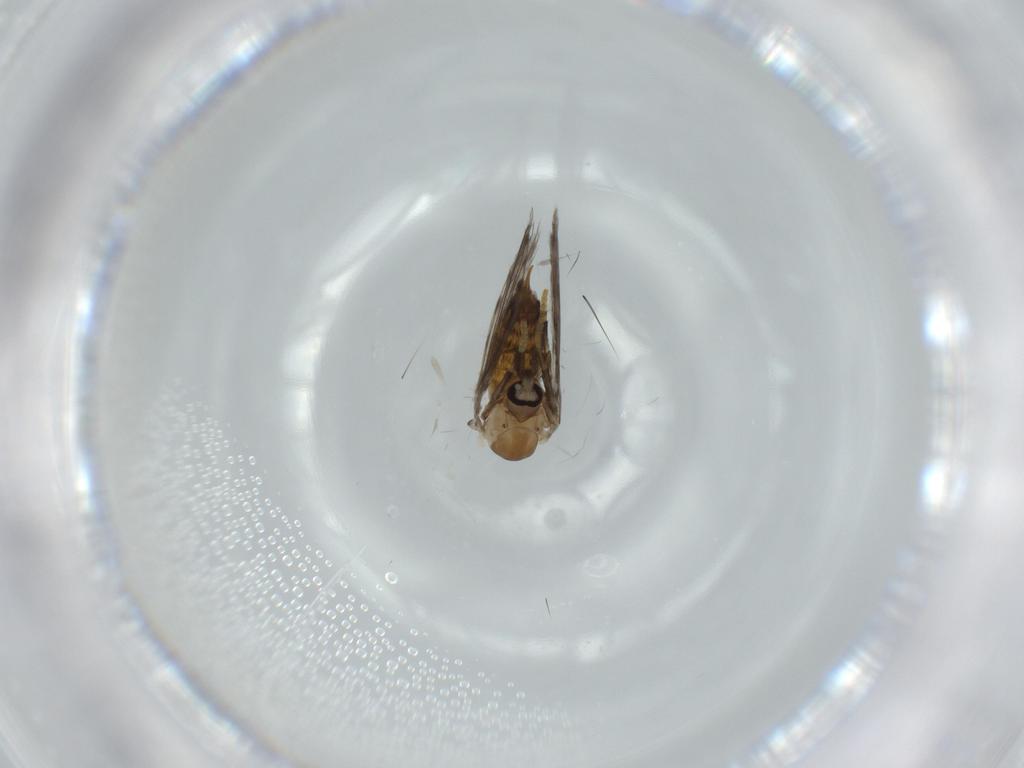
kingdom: Animalia
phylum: Arthropoda
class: Insecta
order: Diptera
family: Psychodidae
